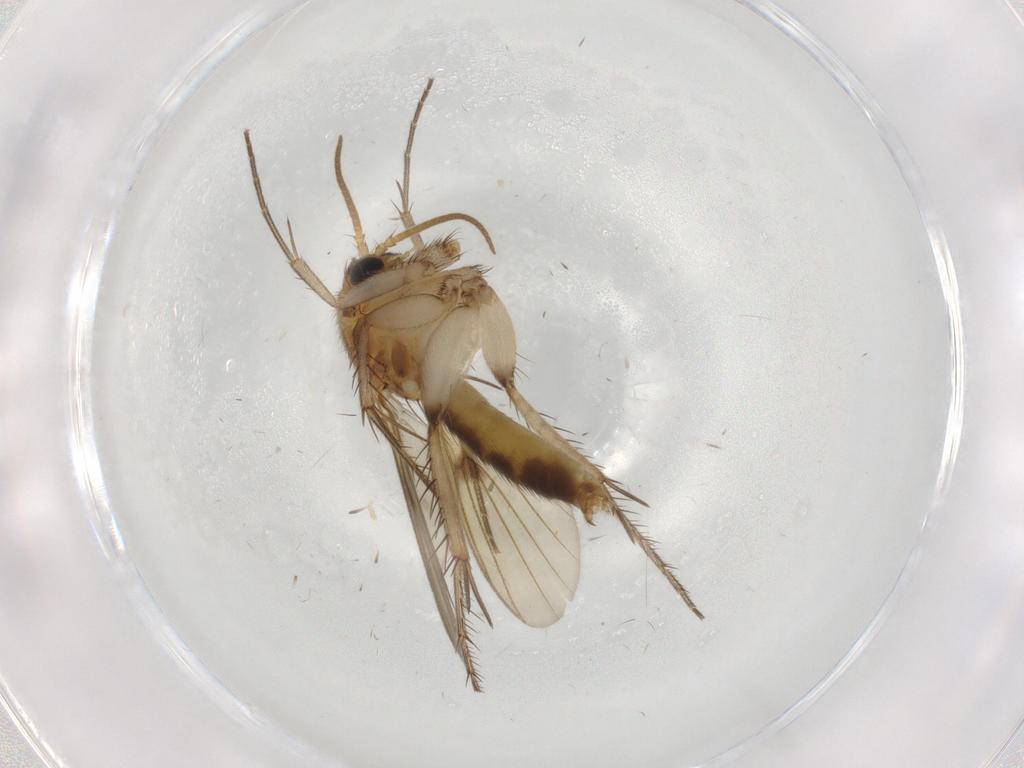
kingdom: Animalia
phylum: Arthropoda
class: Insecta
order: Diptera
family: Mycetophilidae
